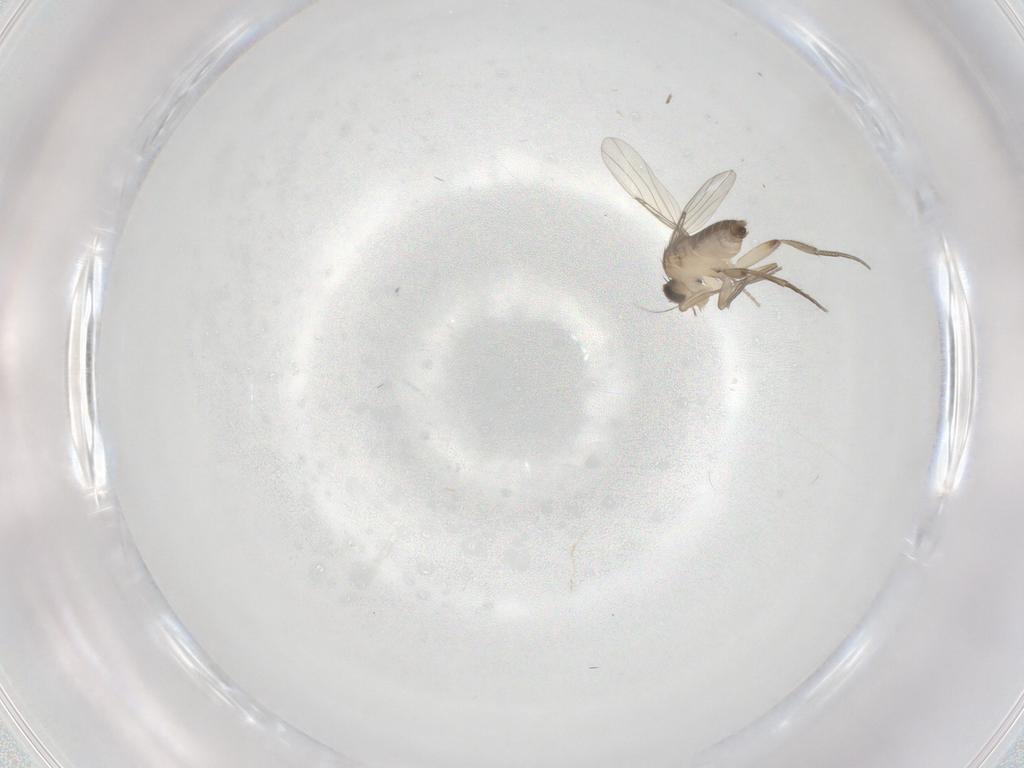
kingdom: Animalia
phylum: Arthropoda
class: Insecta
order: Diptera
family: Phoridae
